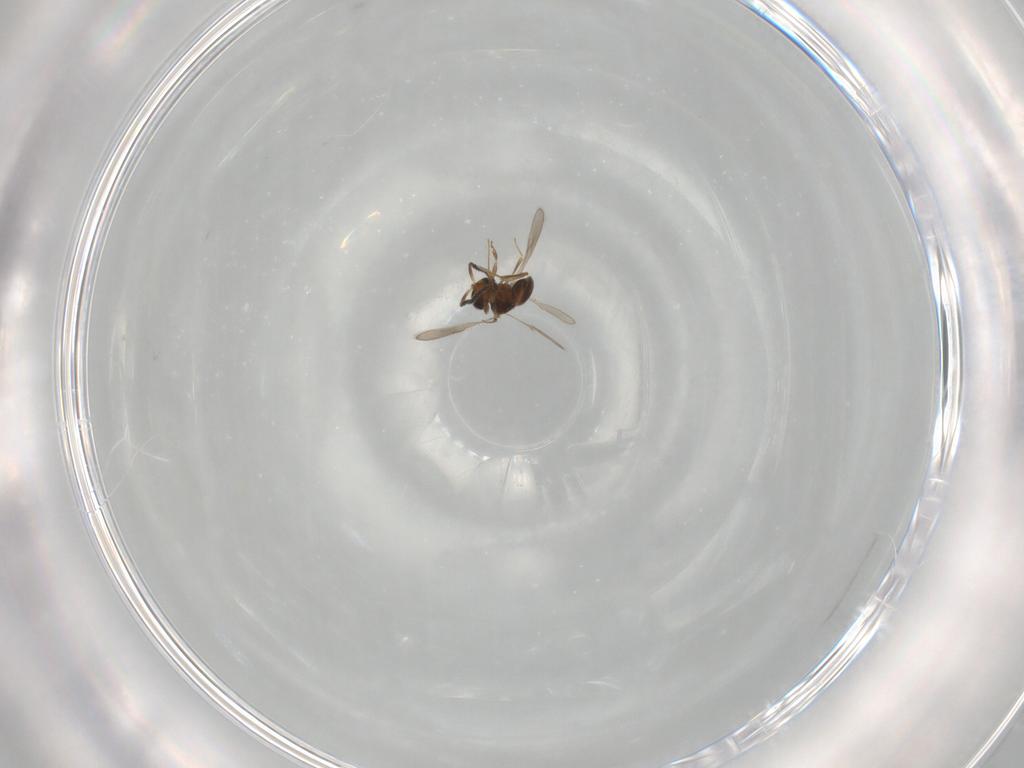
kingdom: Animalia
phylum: Arthropoda
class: Insecta
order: Hymenoptera
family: Scelionidae
